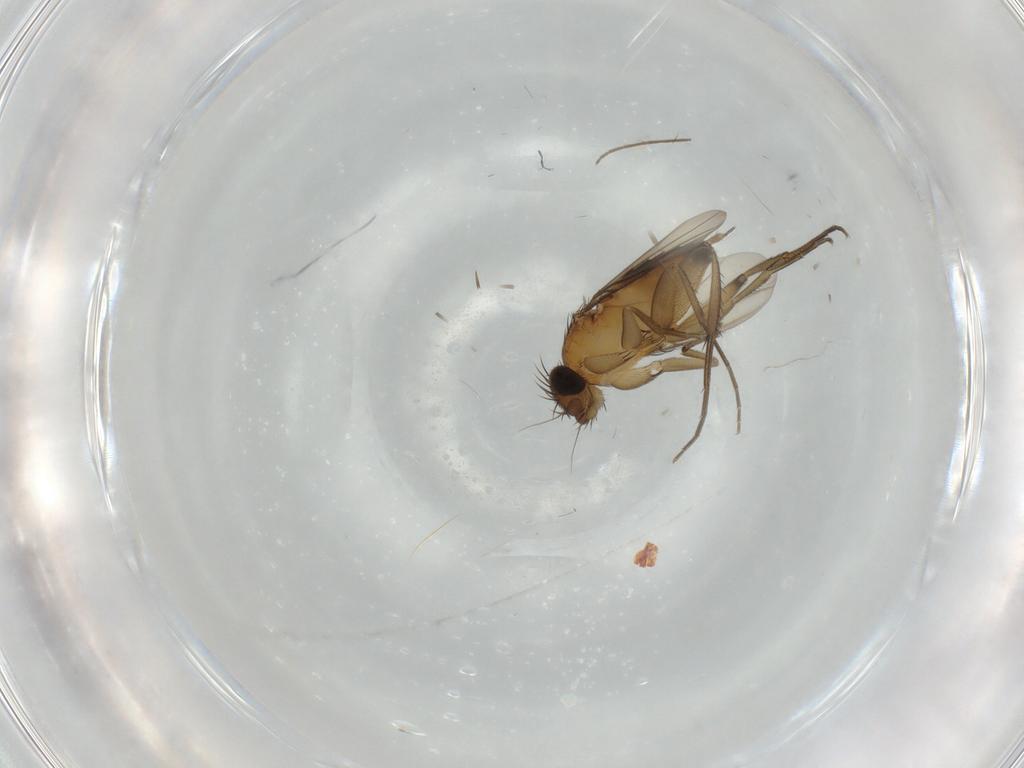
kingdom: Animalia
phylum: Arthropoda
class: Insecta
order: Diptera
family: Phoridae
